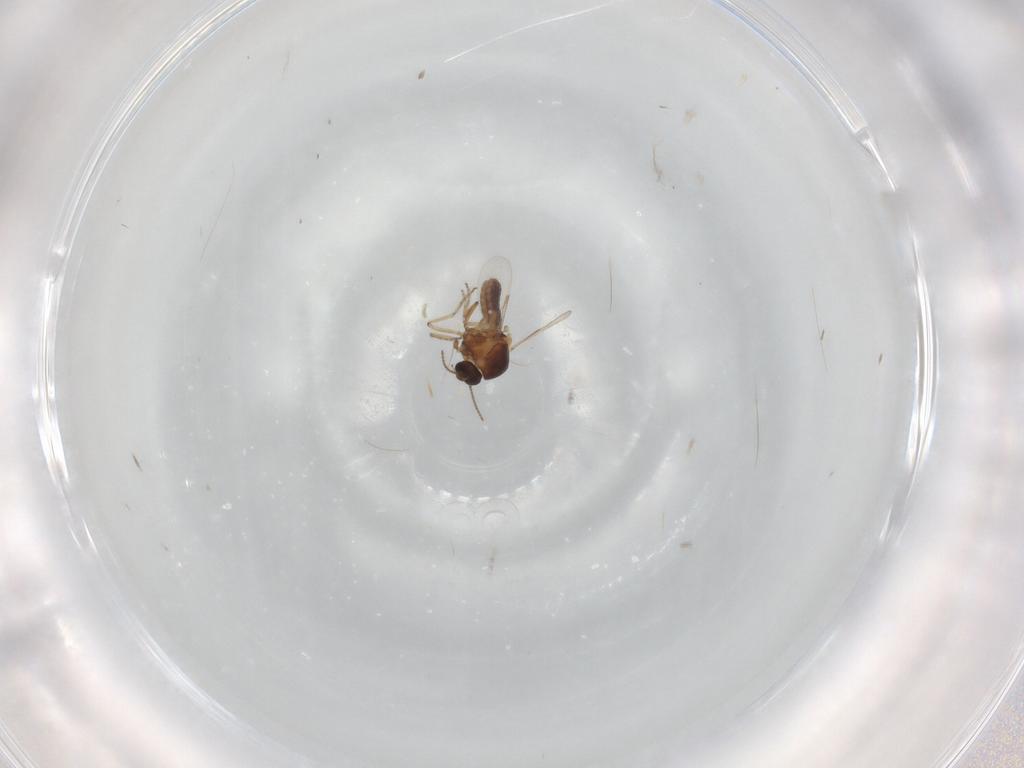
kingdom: Animalia
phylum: Arthropoda
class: Insecta
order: Diptera
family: Ceratopogonidae
